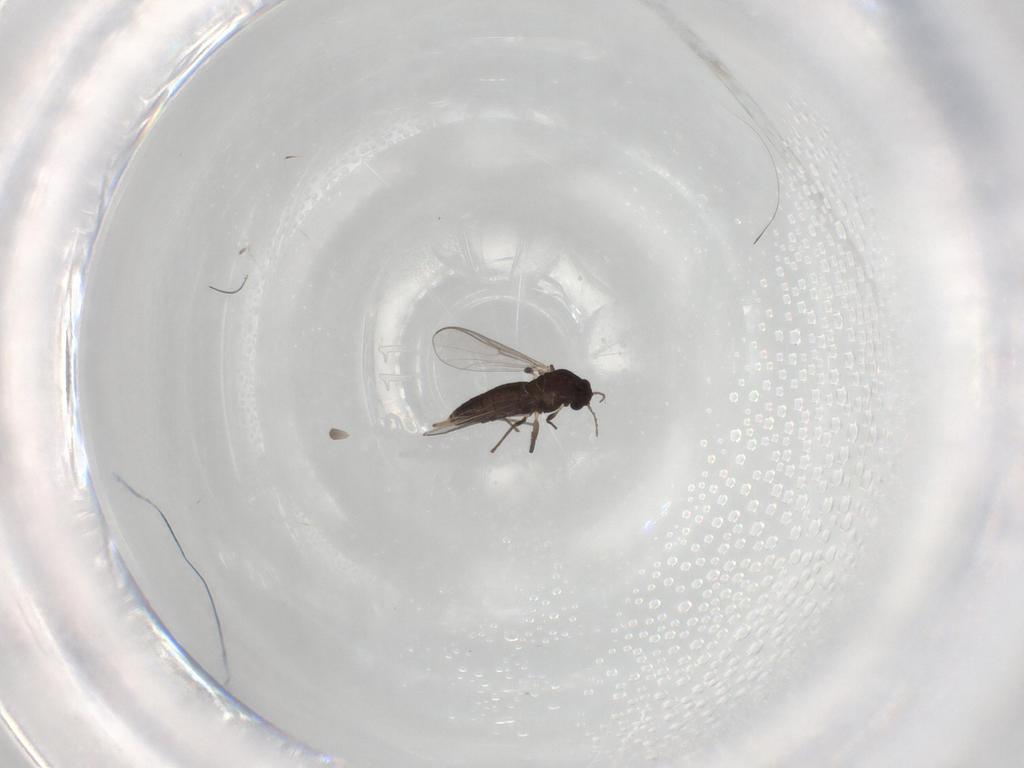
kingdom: Animalia
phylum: Arthropoda
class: Insecta
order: Diptera
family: Chironomidae
